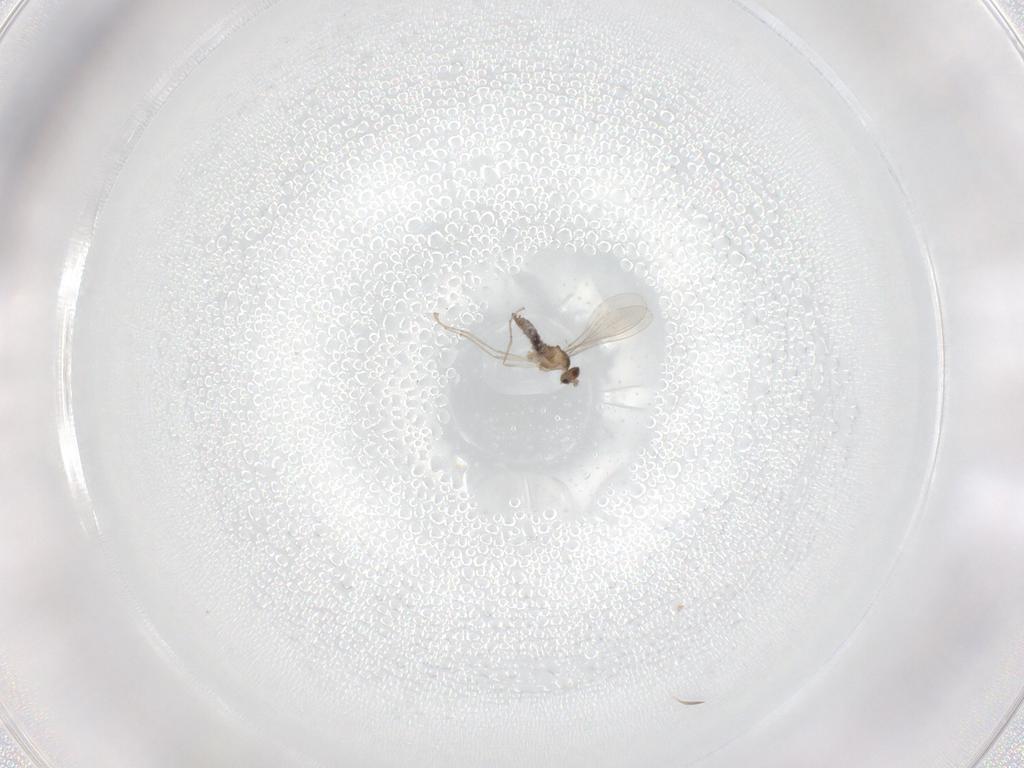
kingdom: Animalia
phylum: Arthropoda
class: Insecta
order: Diptera
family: Cecidomyiidae
